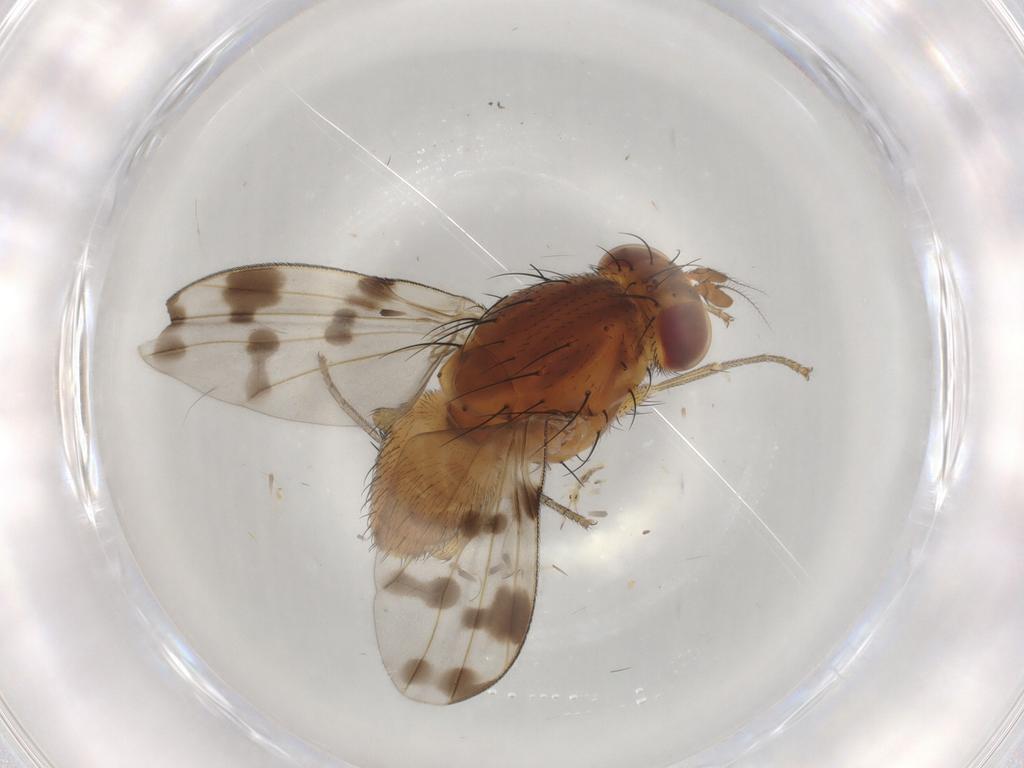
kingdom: Animalia
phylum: Arthropoda
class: Insecta
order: Diptera
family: Cecidomyiidae
